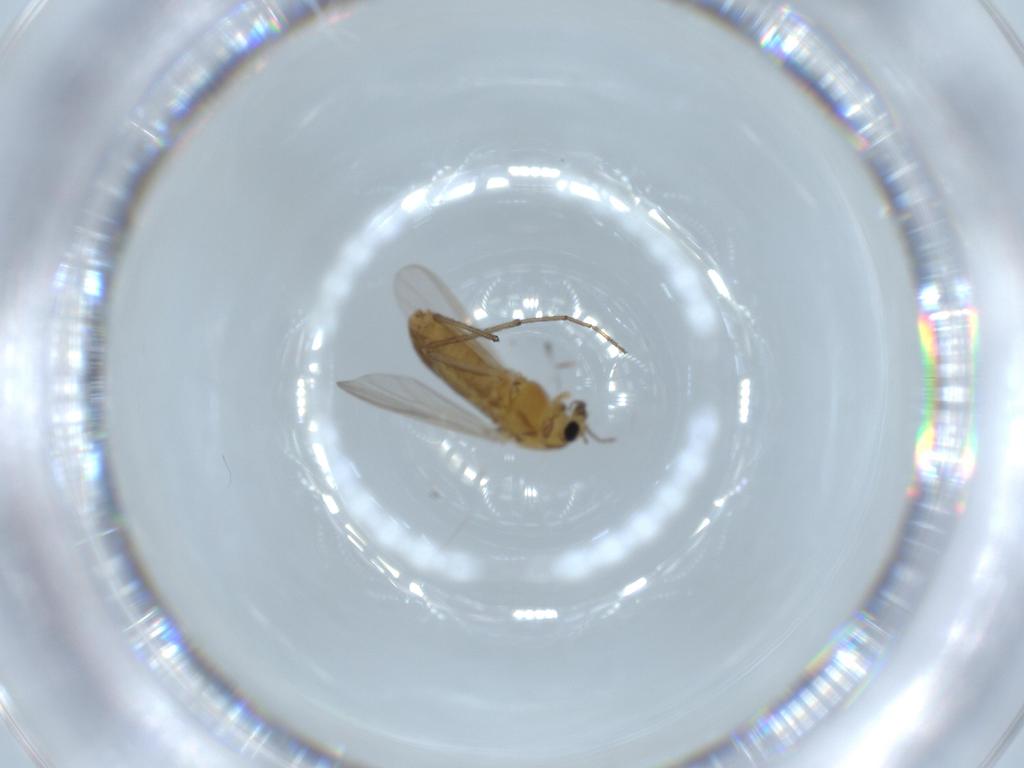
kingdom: Animalia
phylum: Arthropoda
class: Insecta
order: Diptera
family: Chironomidae
